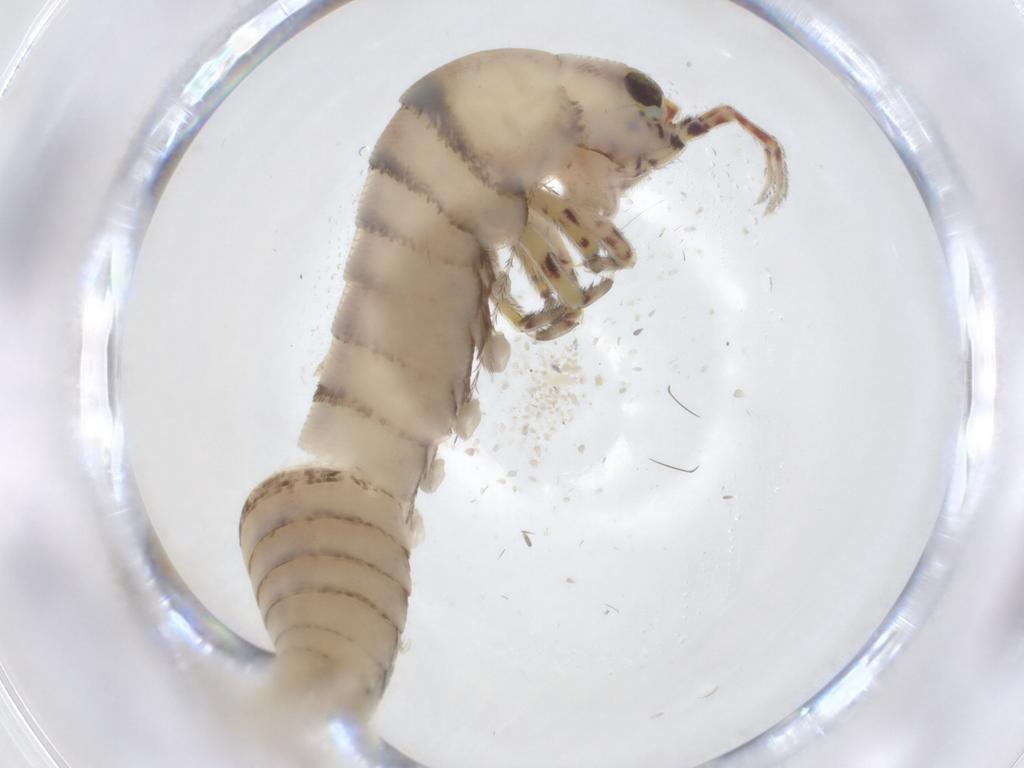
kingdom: Animalia
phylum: Arthropoda
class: Insecta
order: Archaeognatha
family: Meinertellidae
